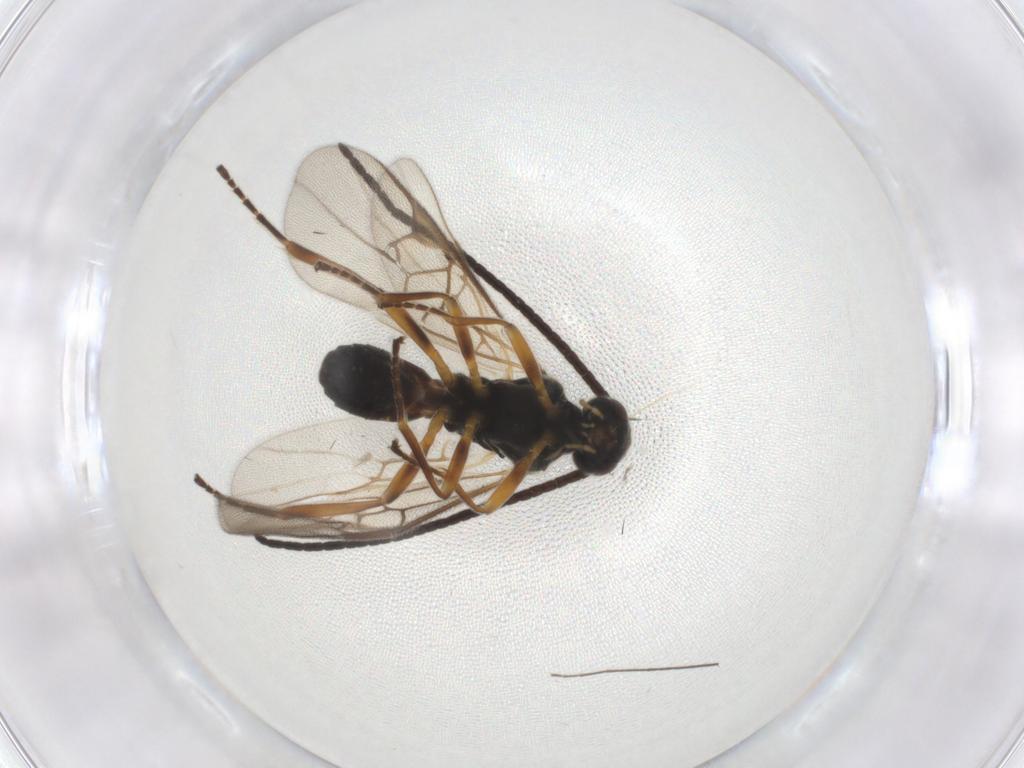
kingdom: Animalia
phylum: Arthropoda
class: Insecta
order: Hymenoptera
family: Braconidae
